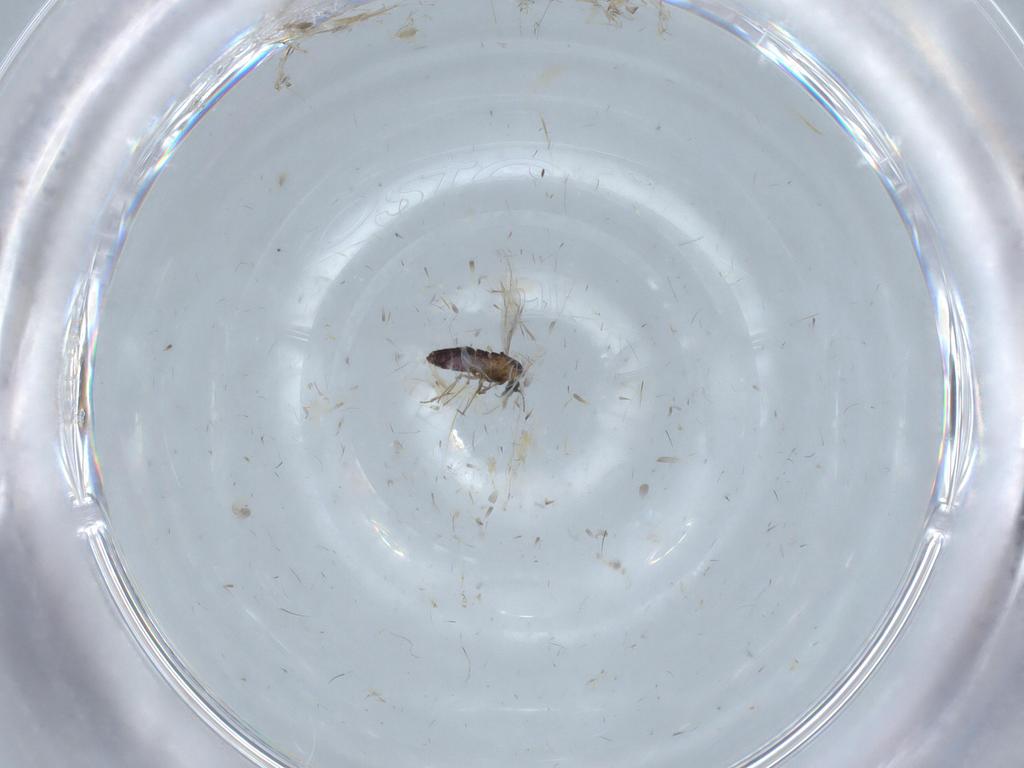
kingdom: Animalia
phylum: Arthropoda
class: Insecta
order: Diptera
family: Chironomidae
